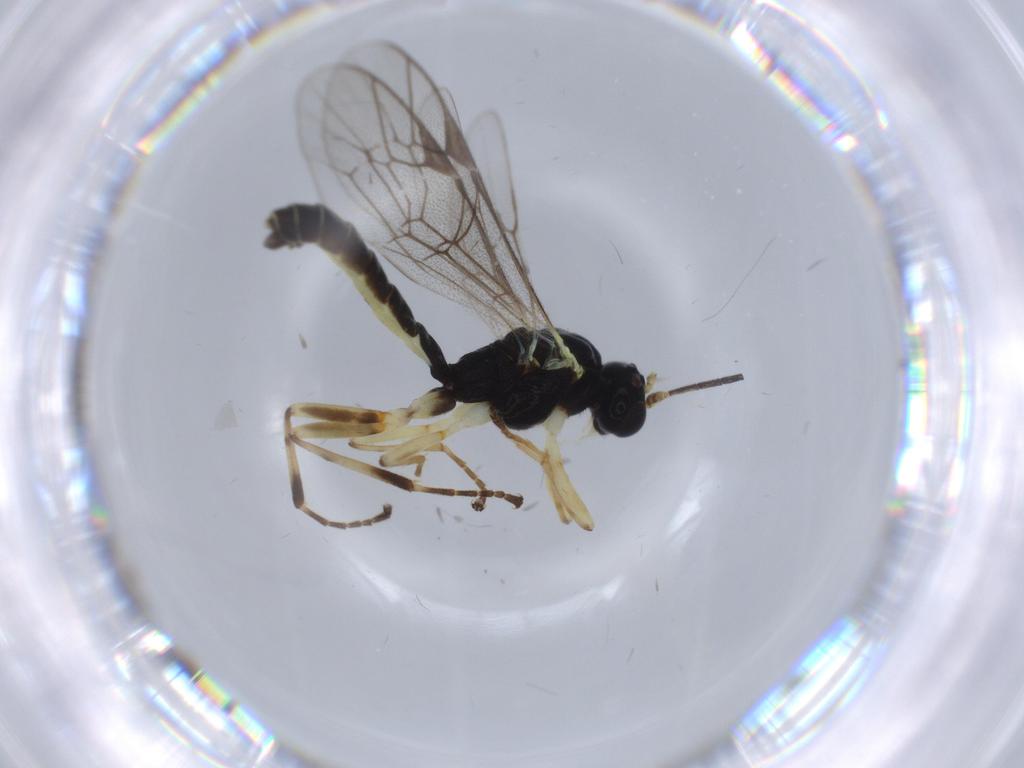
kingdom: Animalia
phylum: Arthropoda
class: Insecta
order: Hymenoptera
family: Ichneumonidae
